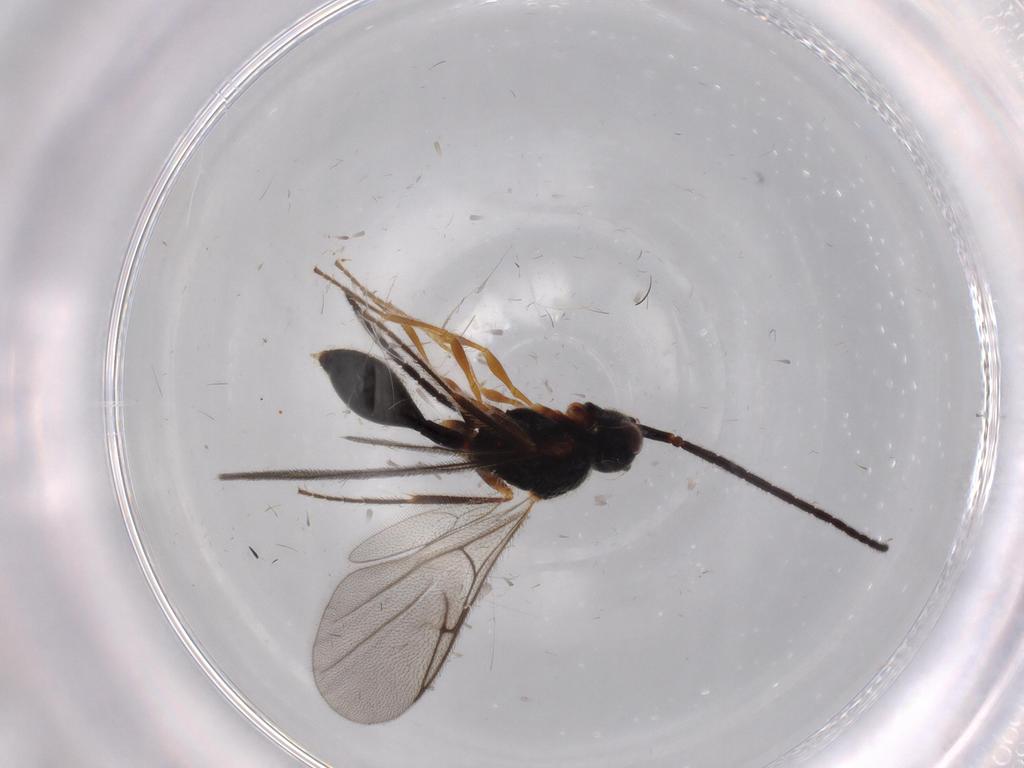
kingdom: Animalia
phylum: Arthropoda
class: Insecta
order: Hymenoptera
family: Diapriidae
